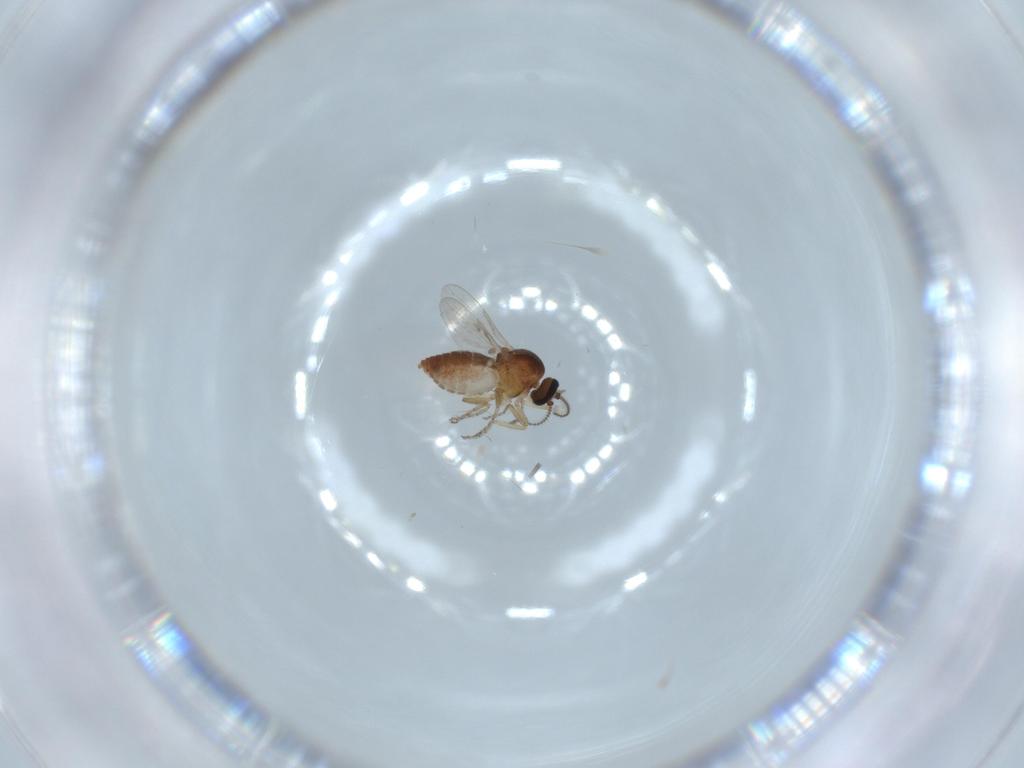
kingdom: Animalia
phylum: Arthropoda
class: Insecta
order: Diptera
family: Ceratopogonidae
